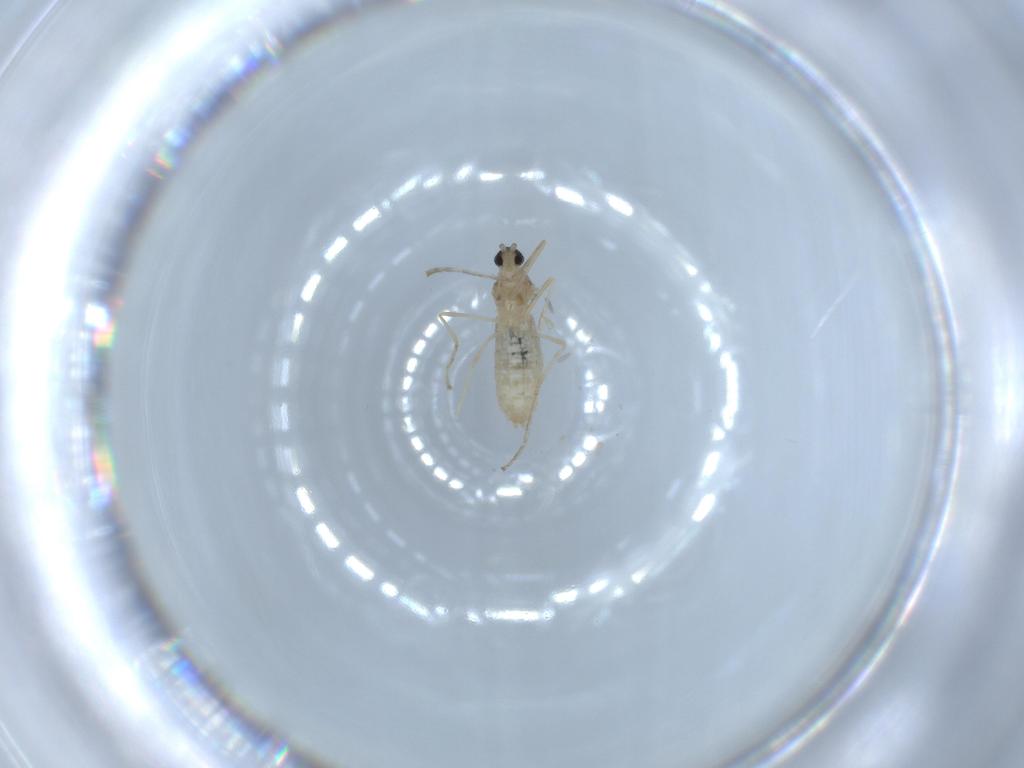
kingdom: Animalia
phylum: Arthropoda
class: Insecta
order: Diptera
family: Cecidomyiidae
